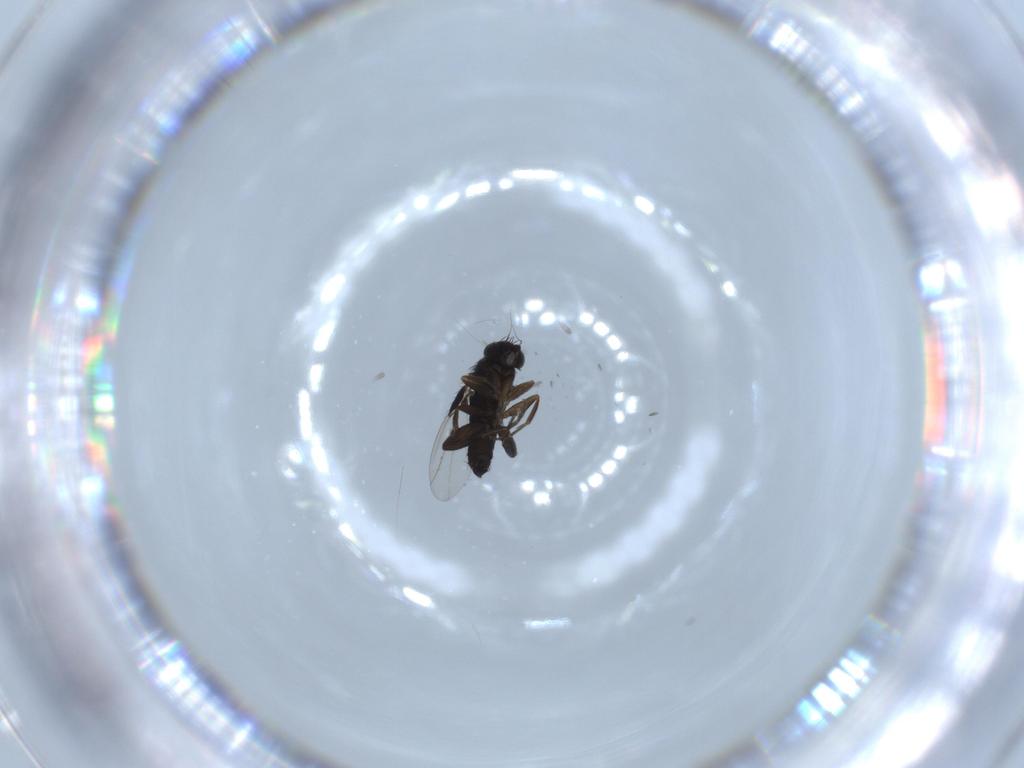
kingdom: Animalia
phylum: Arthropoda
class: Insecta
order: Diptera
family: Phoridae
